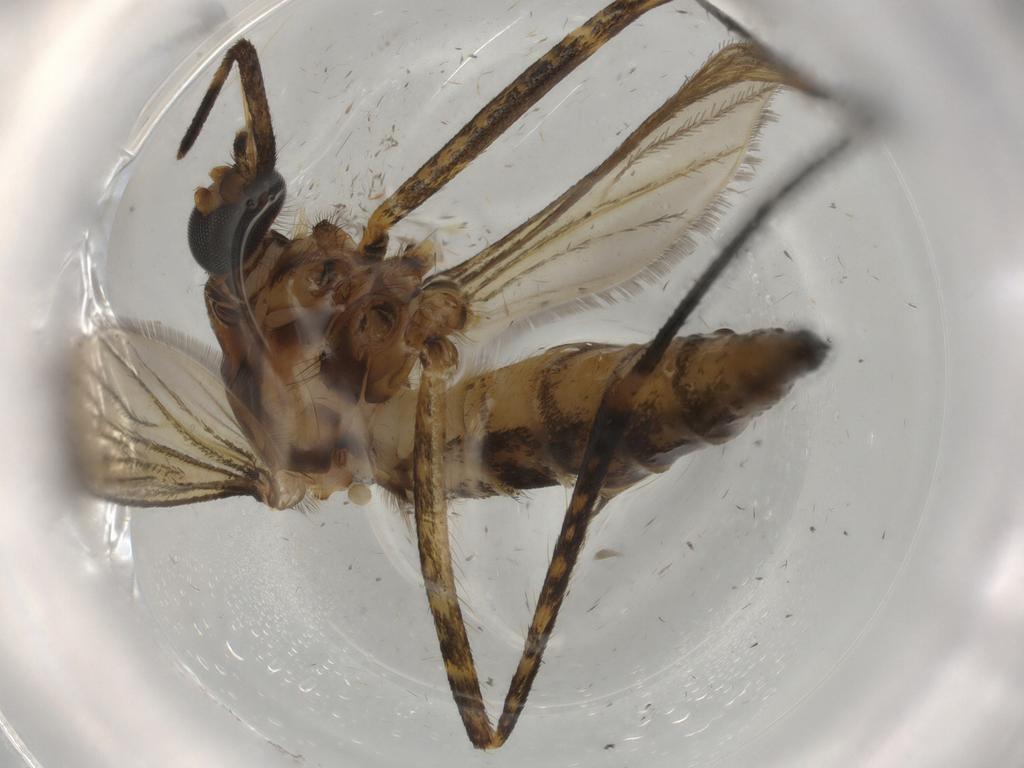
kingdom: Animalia
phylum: Arthropoda
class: Insecta
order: Diptera
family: Culicidae
